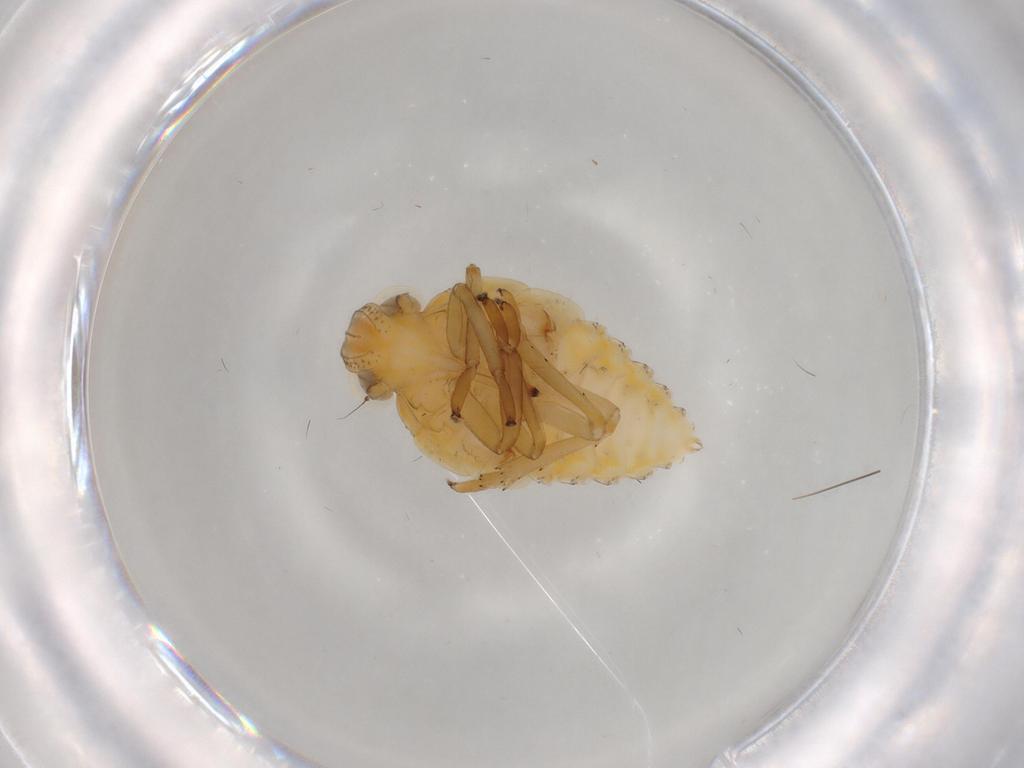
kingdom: Animalia
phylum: Arthropoda
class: Insecta
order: Hemiptera
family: Issidae
